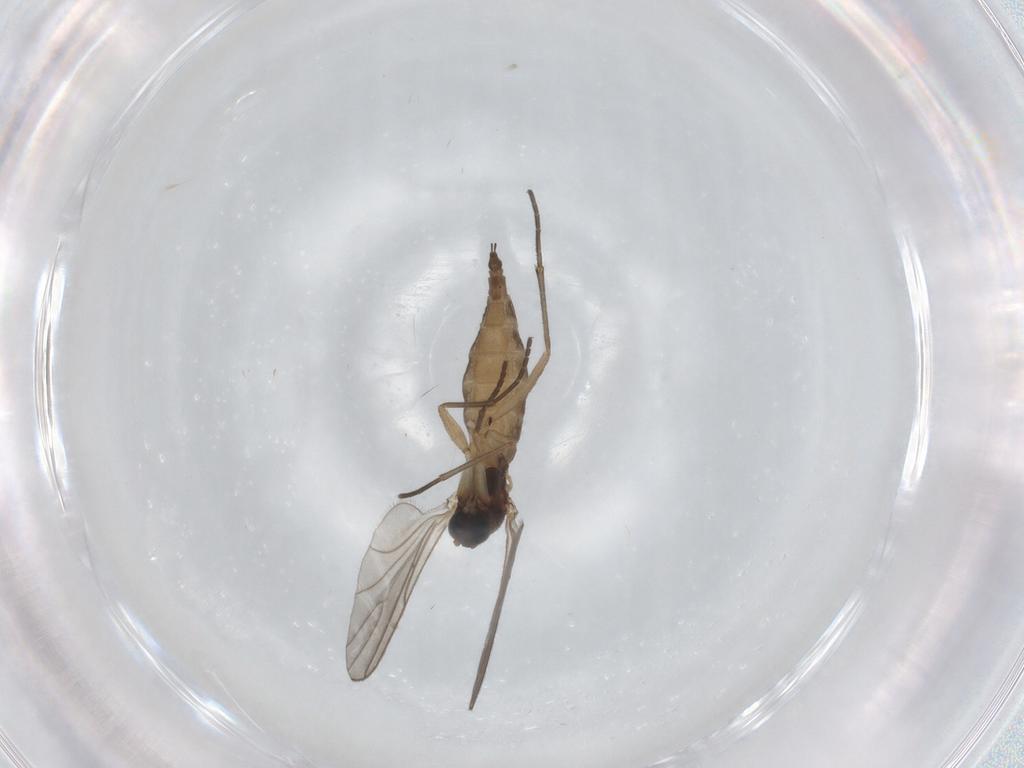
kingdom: Animalia
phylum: Arthropoda
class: Insecta
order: Diptera
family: Sciaridae
